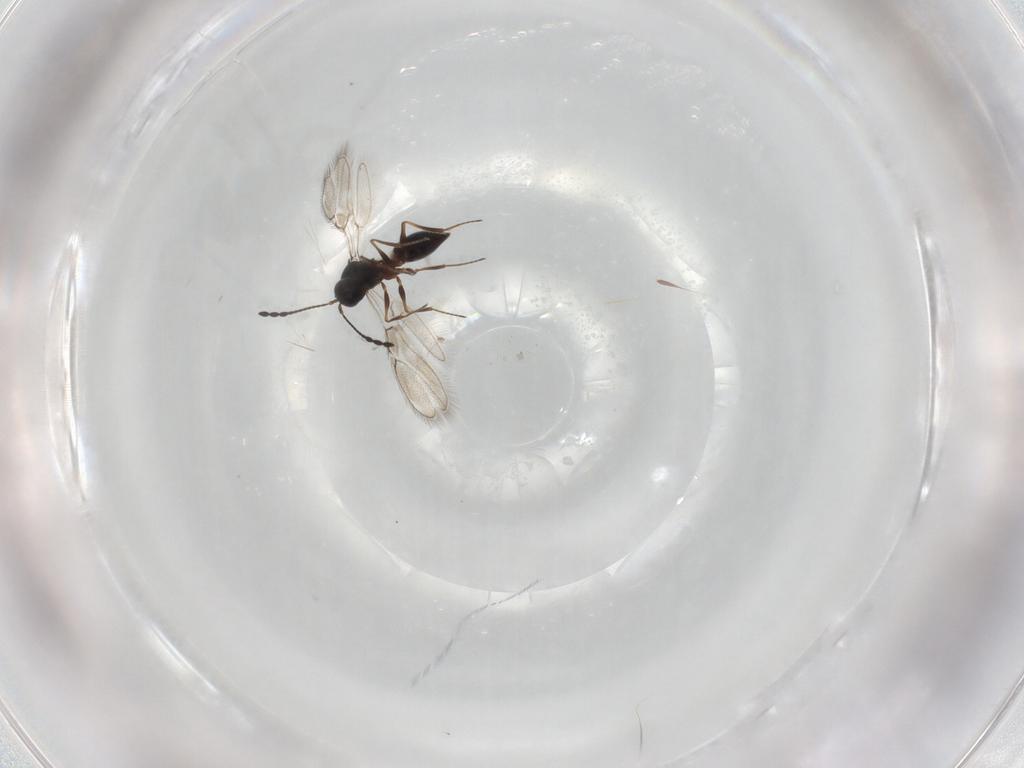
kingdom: Animalia
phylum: Arthropoda
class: Insecta
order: Hymenoptera
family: Figitidae
